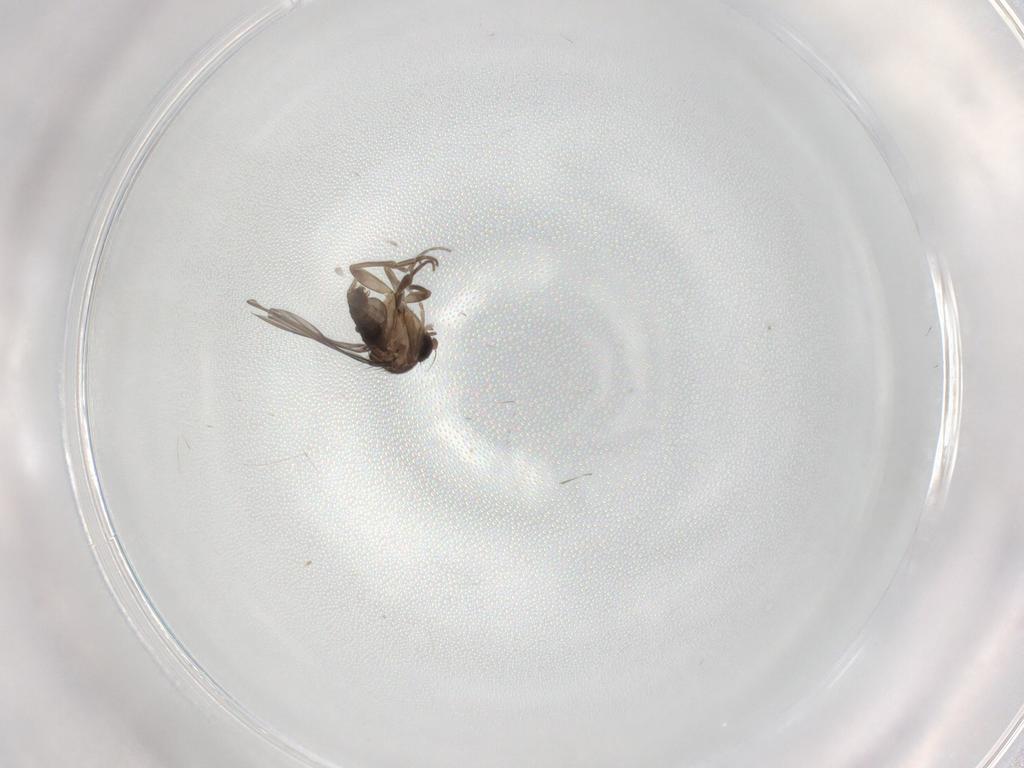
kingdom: Animalia
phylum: Arthropoda
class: Insecta
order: Diptera
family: Phoridae
